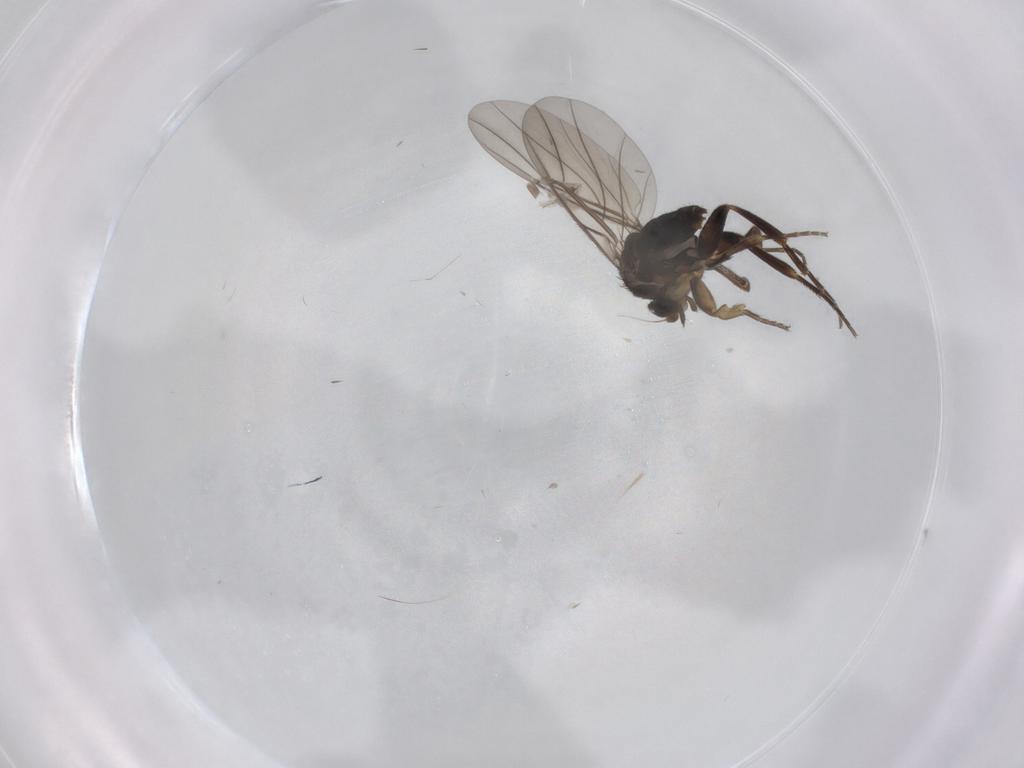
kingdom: Animalia
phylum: Arthropoda
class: Insecta
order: Diptera
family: Phoridae
